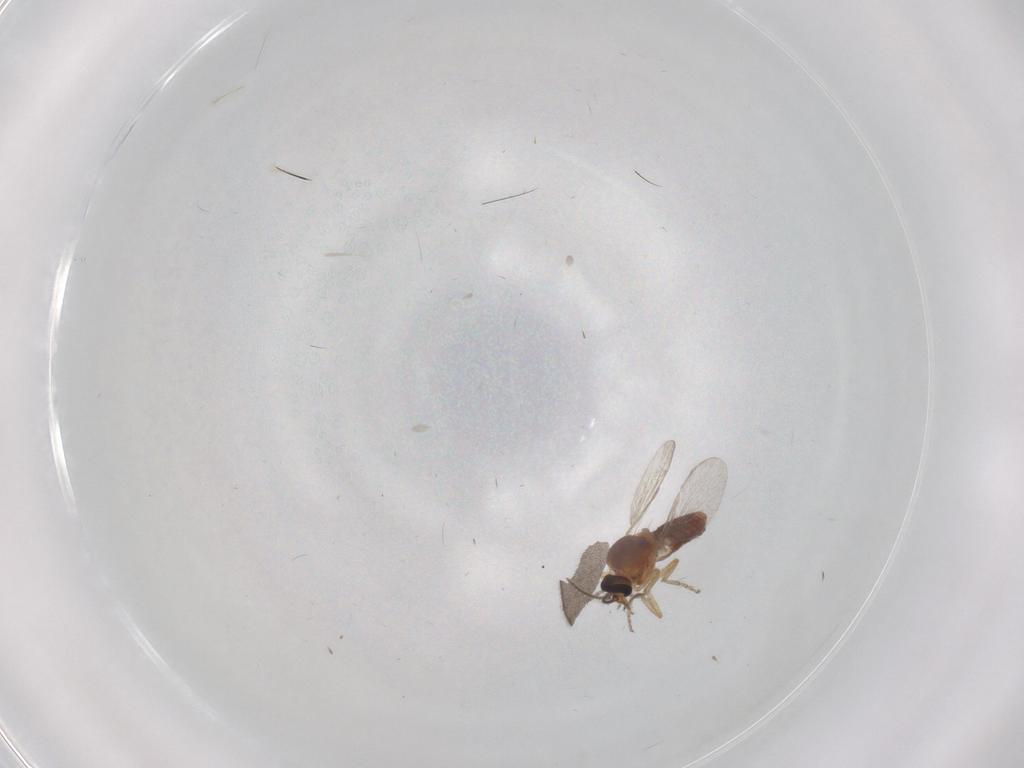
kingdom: Animalia
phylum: Arthropoda
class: Insecta
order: Diptera
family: Ceratopogonidae
